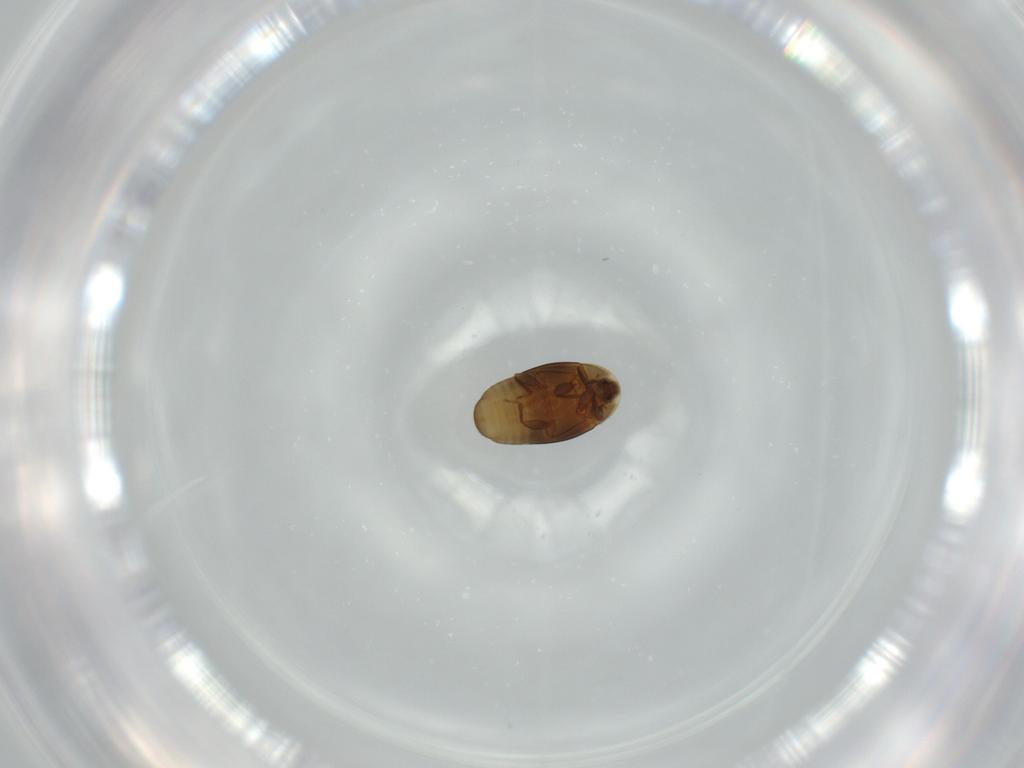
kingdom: Animalia
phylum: Arthropoda
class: Insecta
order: Coleoptera
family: Corylophidae
